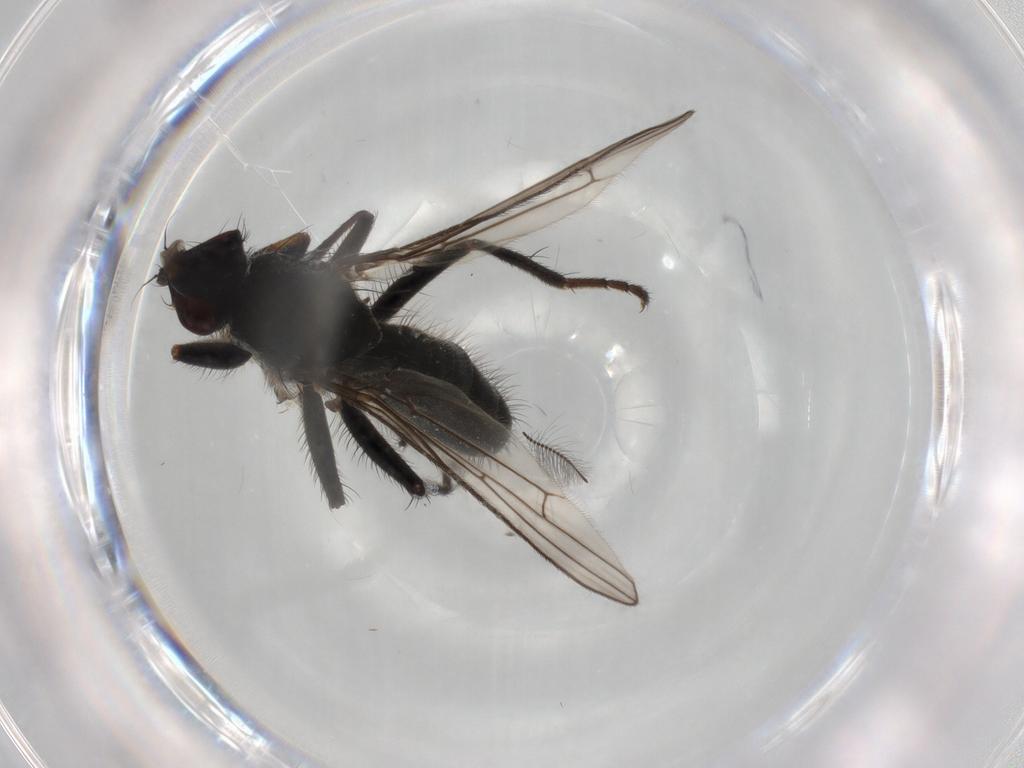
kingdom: Animalia
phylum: Arthropoda
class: Insecta
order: Diptera
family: Scathophagidae
